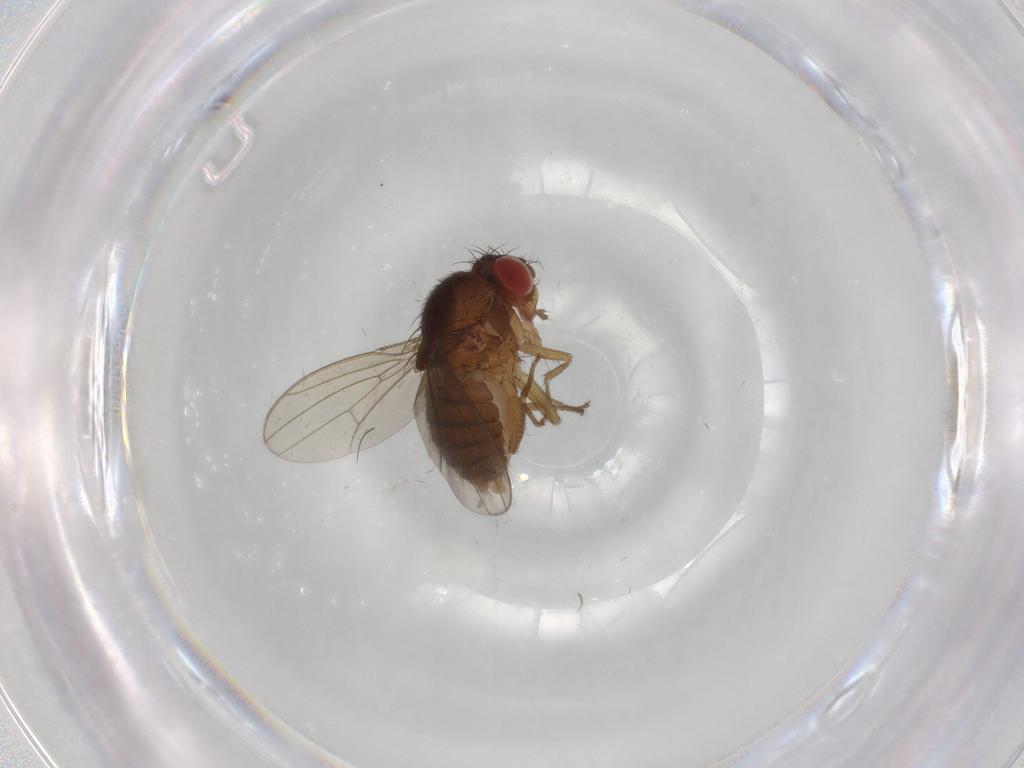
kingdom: Animalia
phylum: Arthropoda
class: Insecta
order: Diptera
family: Drosophilidae
